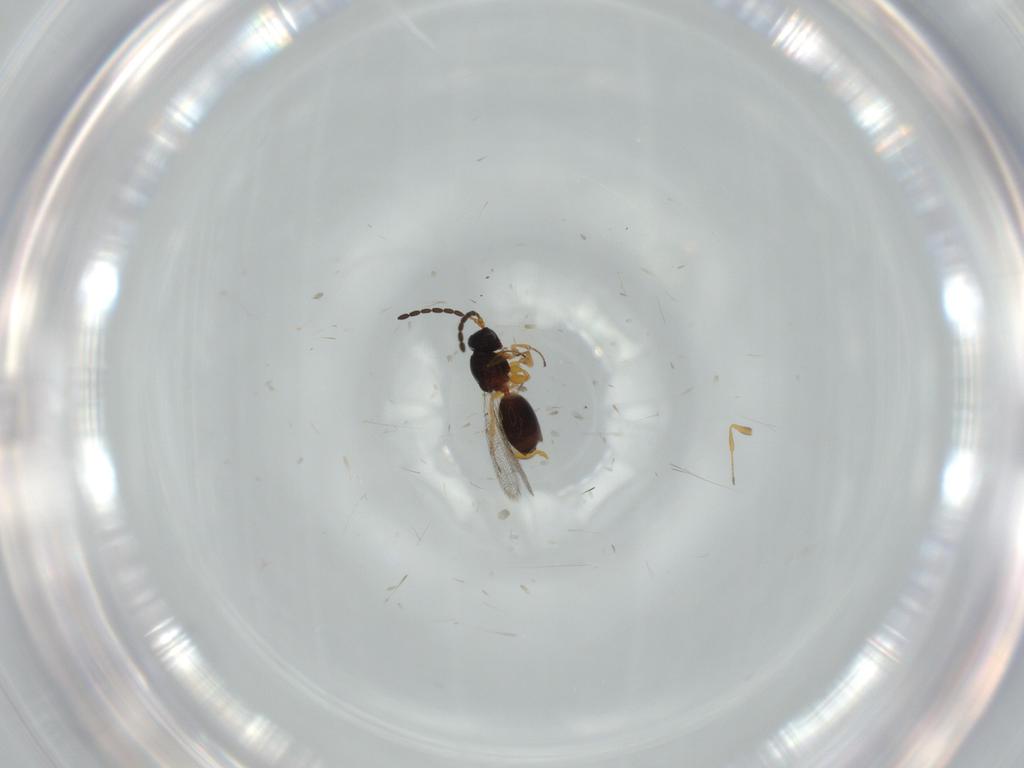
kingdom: Animalia
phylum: Arthropoda
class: Insecta
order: Hymenoptera
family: Figitidae
